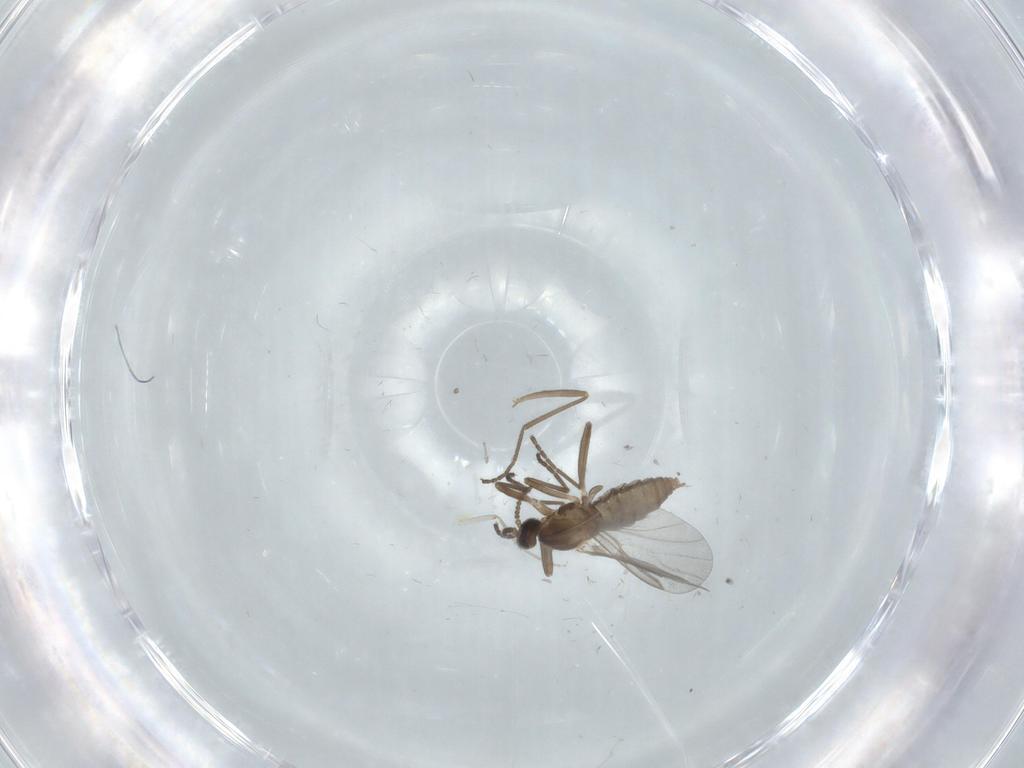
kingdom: Animalia
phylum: Arthropoda
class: Insecta
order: Diptera
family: Cecidomyiidae
